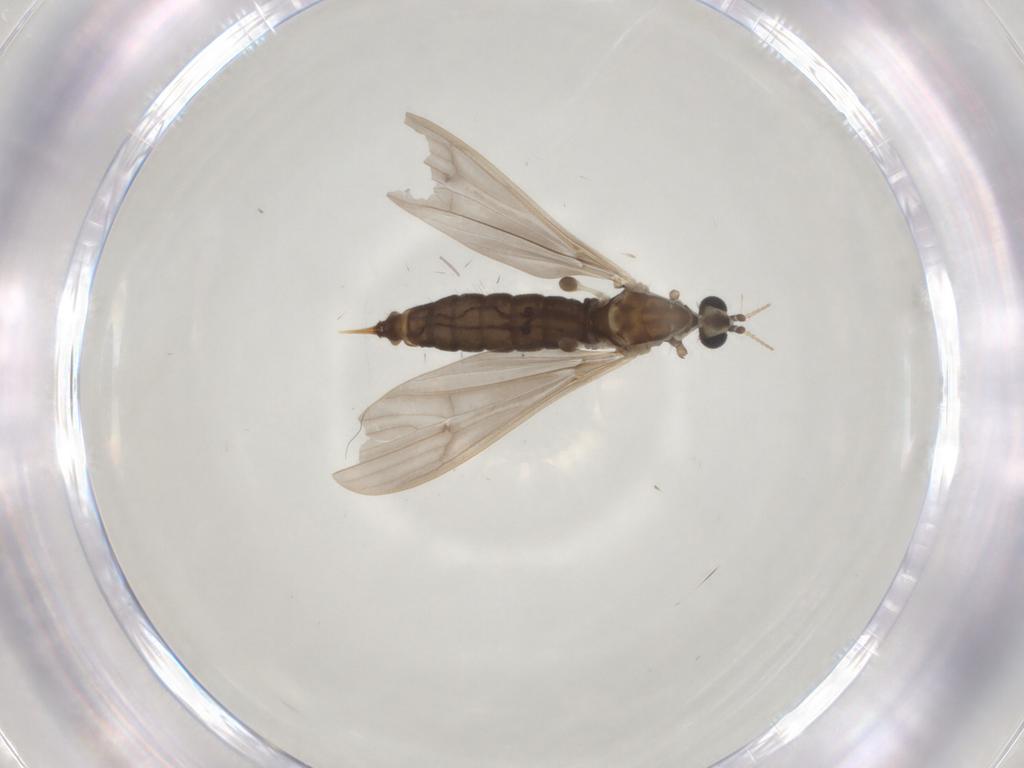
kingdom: Animalia
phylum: Arthropoda
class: Insecta
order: Diptera
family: Limoniidae
